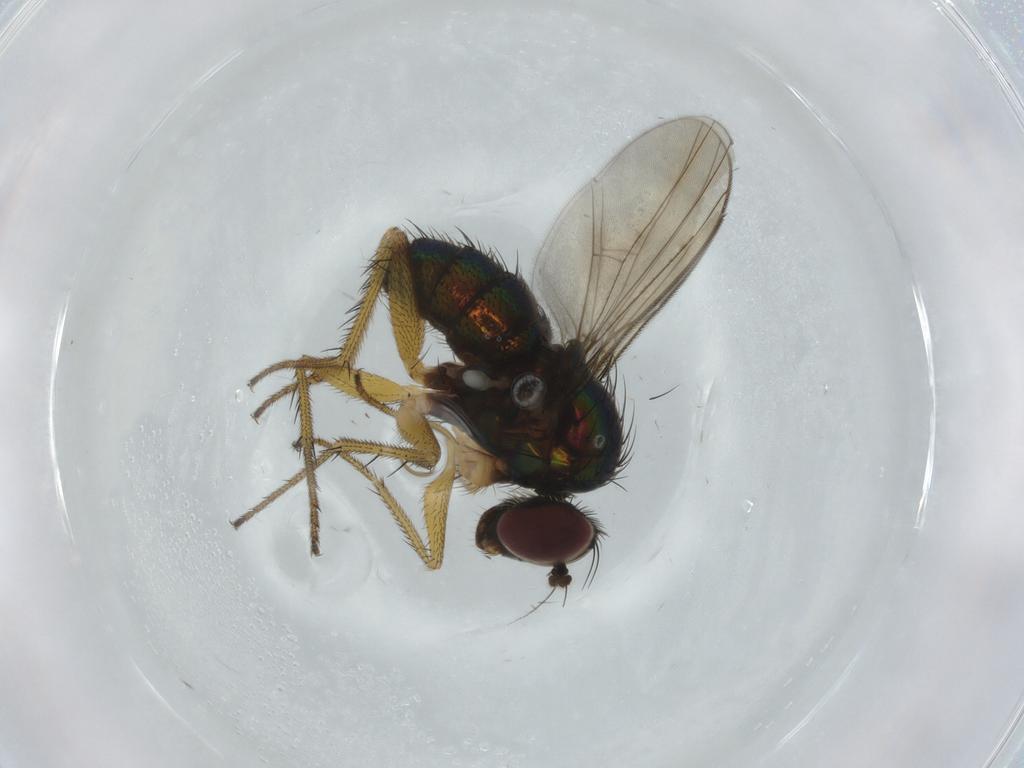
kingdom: Animalia
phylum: Arthropoda
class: Insecta
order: Diptera
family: Dolichopodidae
